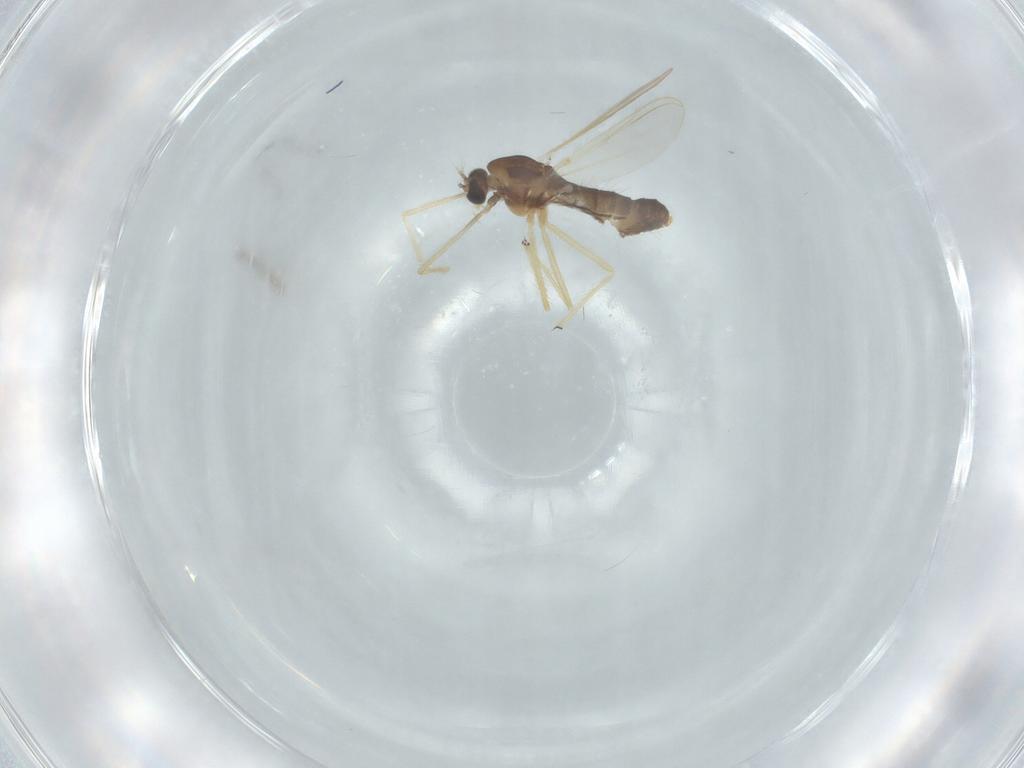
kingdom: Animalia
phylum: Arthropoda
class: Insecta
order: Diptera
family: Chironomidae
